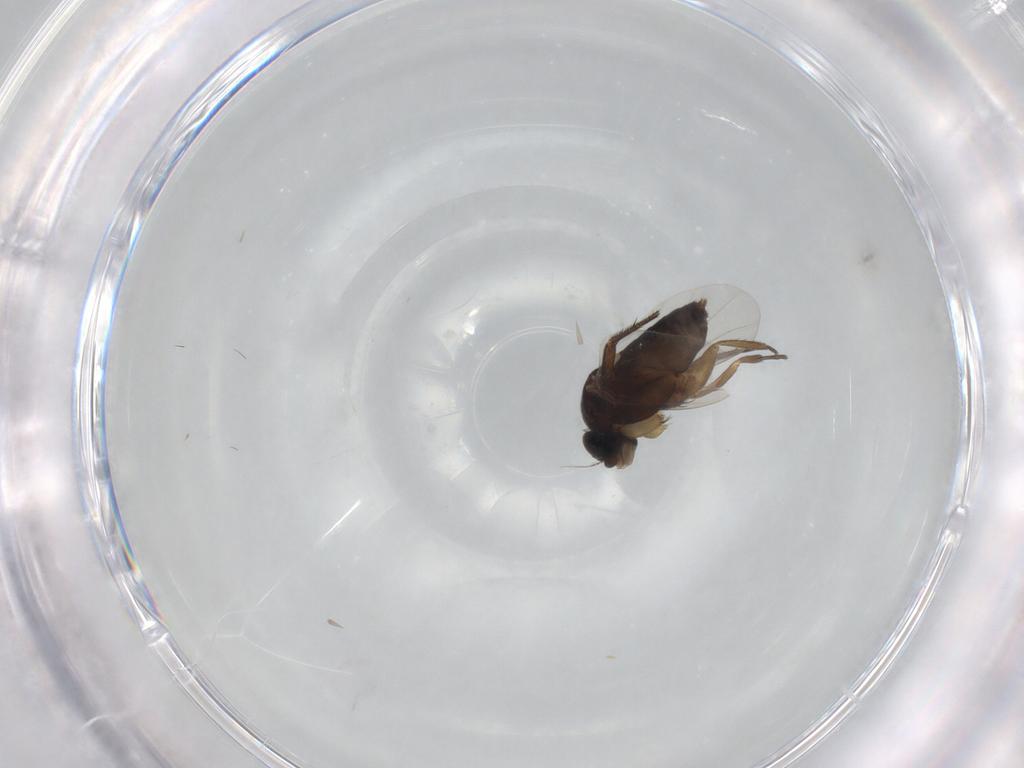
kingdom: Animalia
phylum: Arthropoda
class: Insecta
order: Diptera
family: Phoridae
